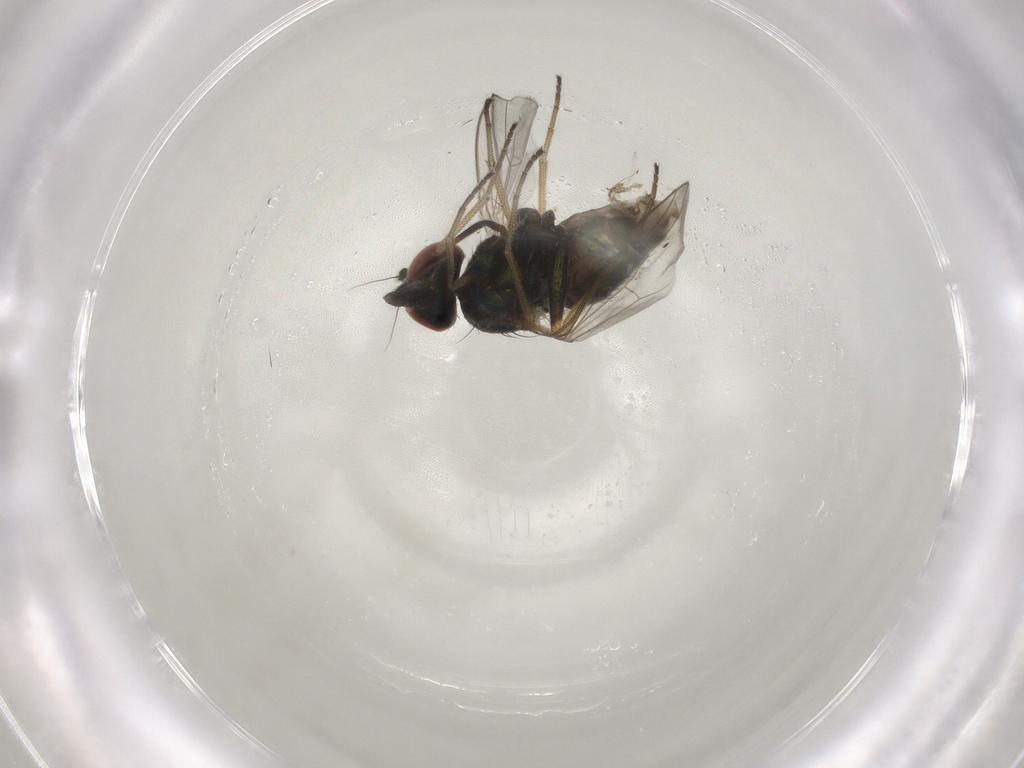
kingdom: Animalia
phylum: Arthropoda
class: Insecta
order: Diptera
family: Dolichopodidae
